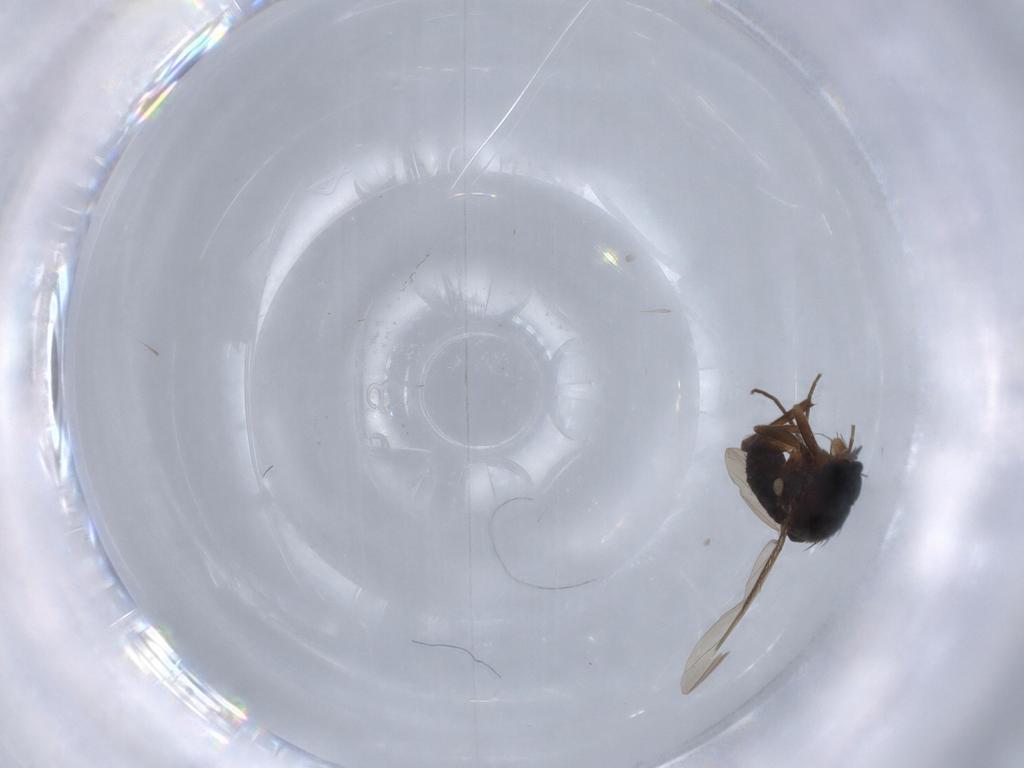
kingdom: Animalia
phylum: Arthropoda
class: Insecta
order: Diptera
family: Phoridae
